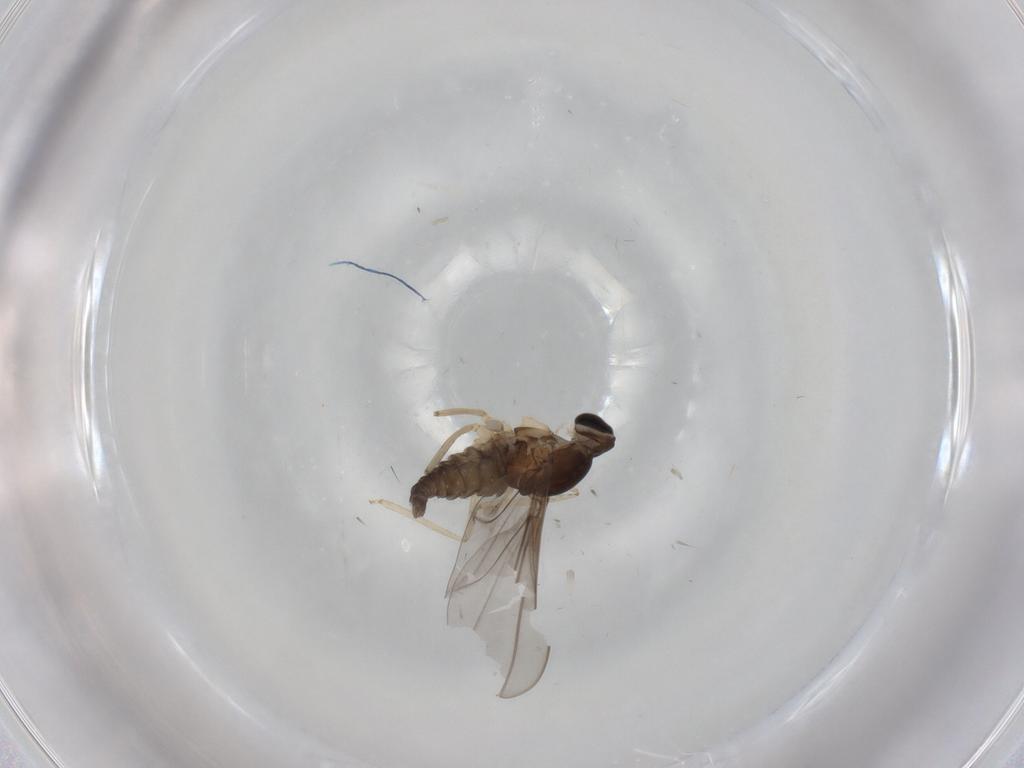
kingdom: Animalia
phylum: Arthropoda
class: Insecta
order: Diptera
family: Cecidomyiidae
